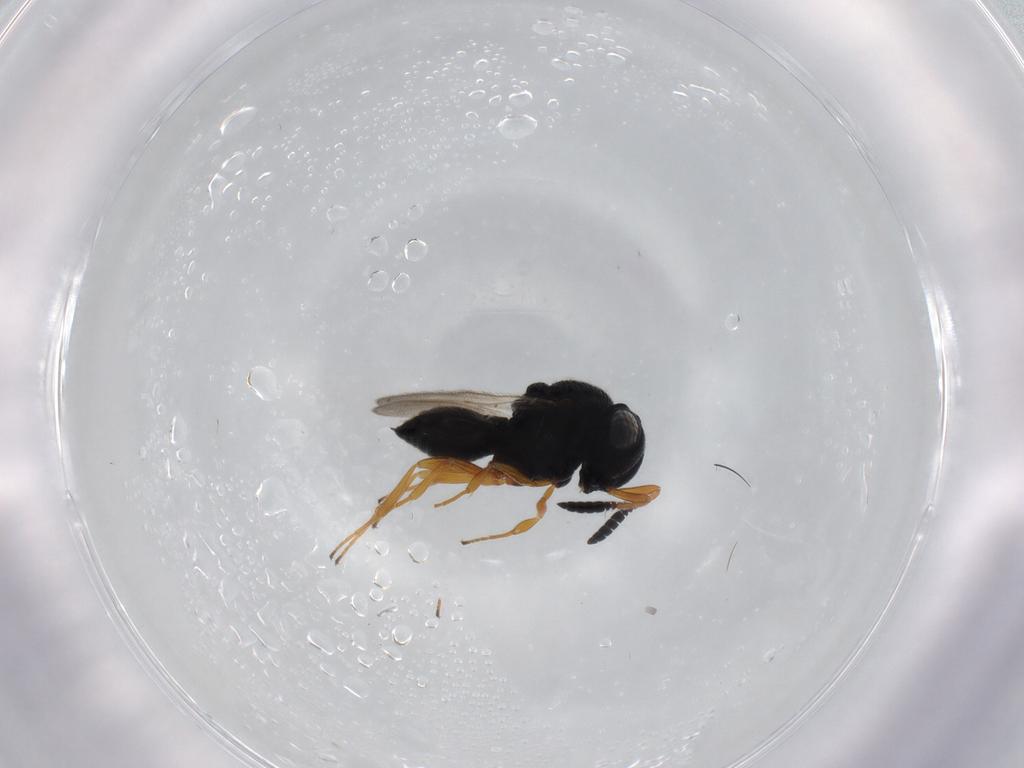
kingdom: Animalia
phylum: Arthropoda
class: Insecta
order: Hymenoptera
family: Scelionidae
